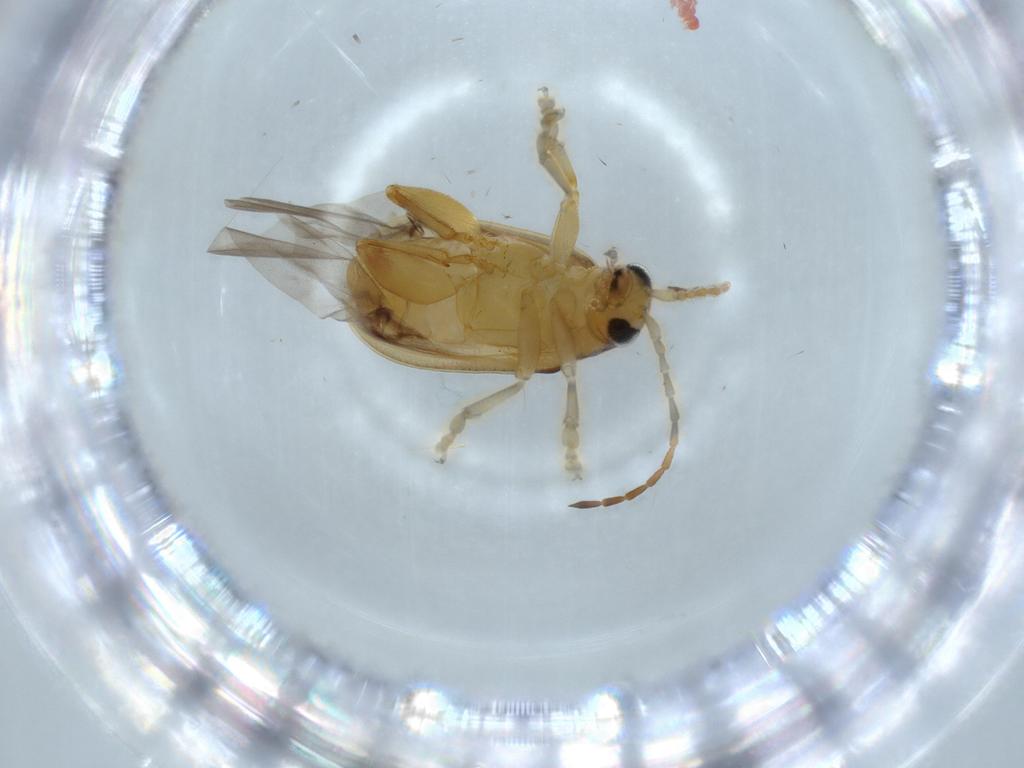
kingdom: Animalia
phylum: Arthropoda
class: Insecta
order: Coleoptera
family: Chrysomelidae
